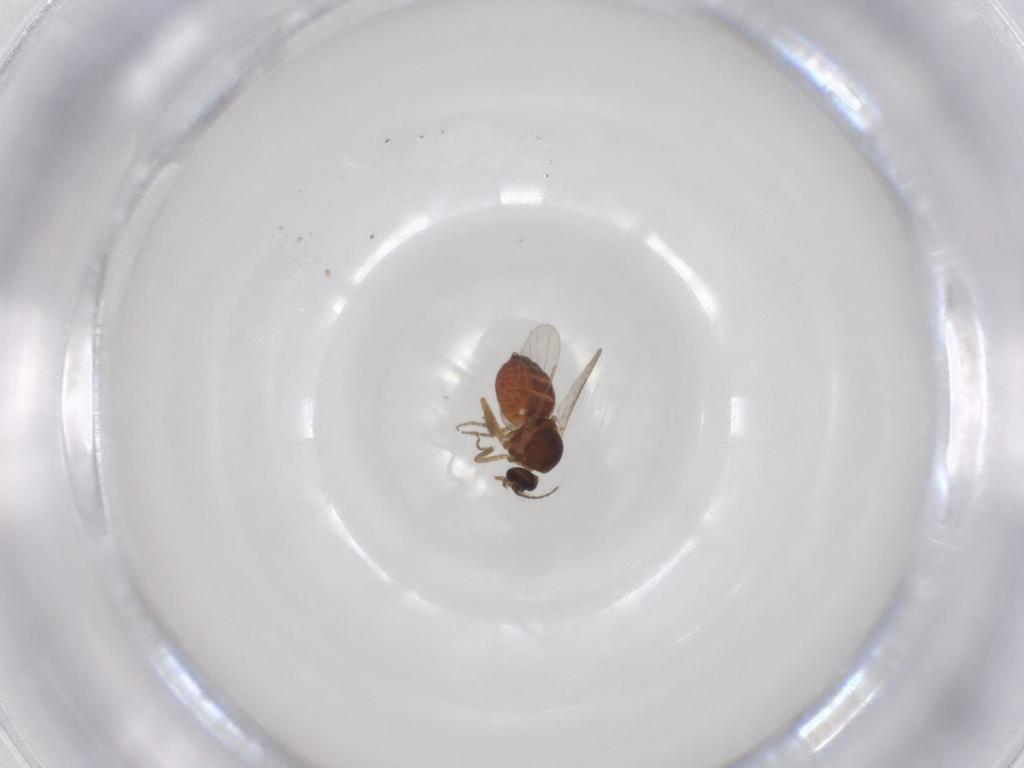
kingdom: Animalia
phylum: Arthropoda
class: Insecta
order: Diptera
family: Ceratopogonidae
